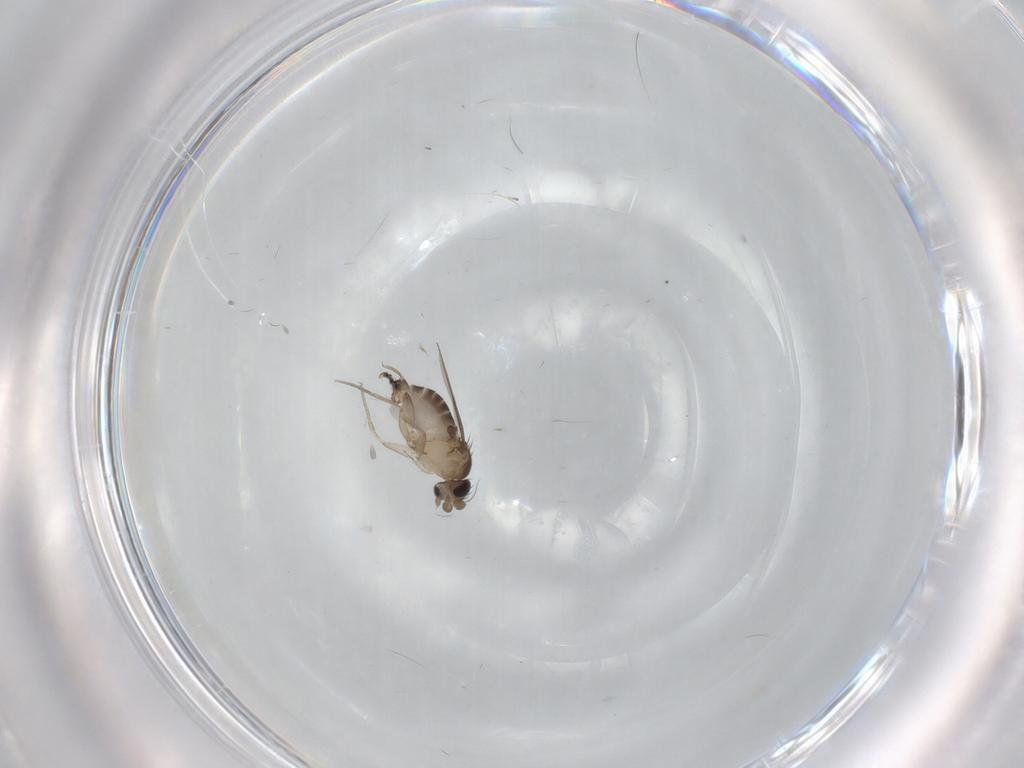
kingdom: Animalia
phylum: Arthropoda
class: Insecta
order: Diptera
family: Phoridae
